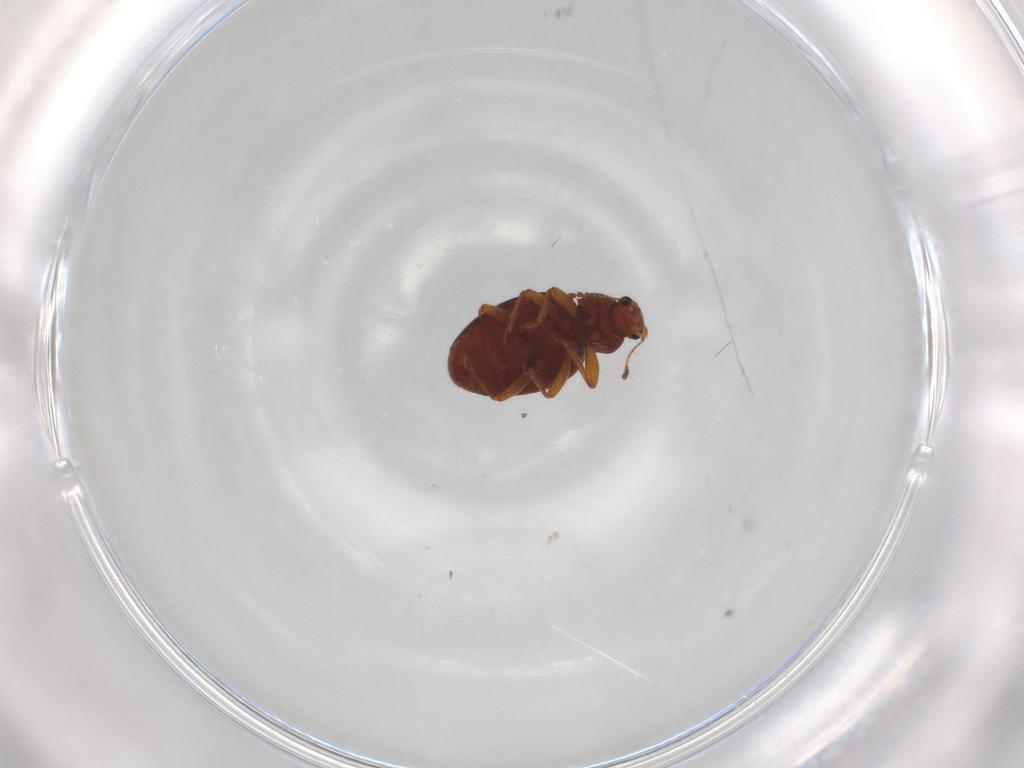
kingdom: Animalia
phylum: Arthropoda
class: Insecta
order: Coleoptera
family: Latridiidae
